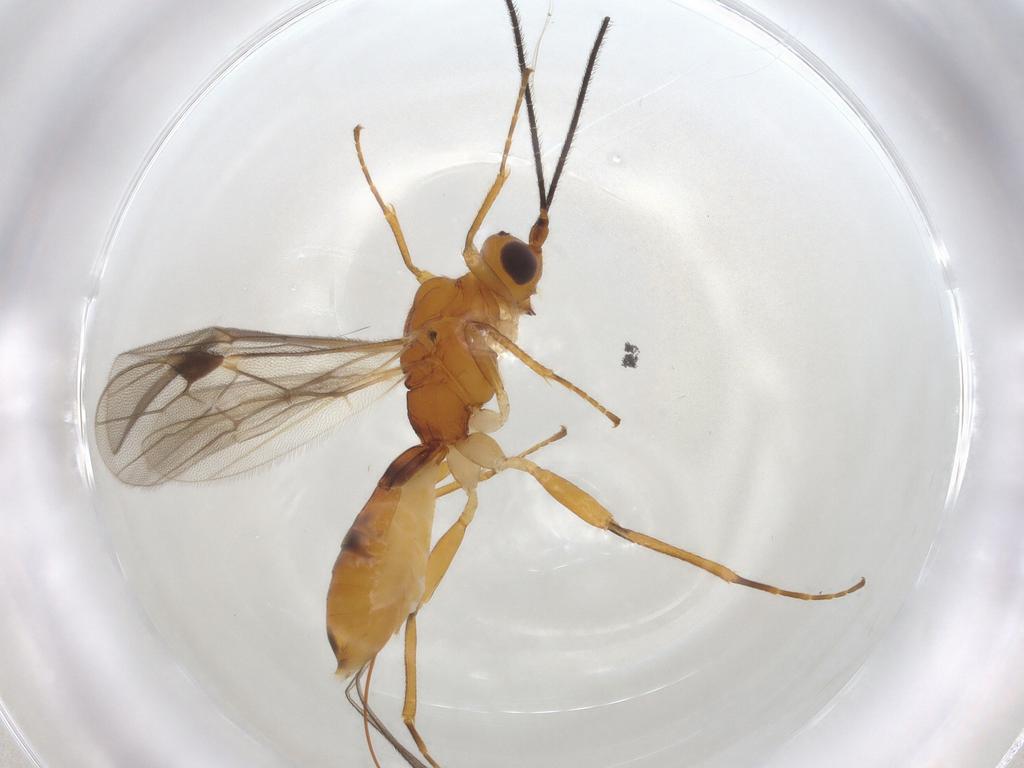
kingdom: Animalia
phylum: Arthropoda
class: Insecta
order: Hymenoptera
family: Braconidae
